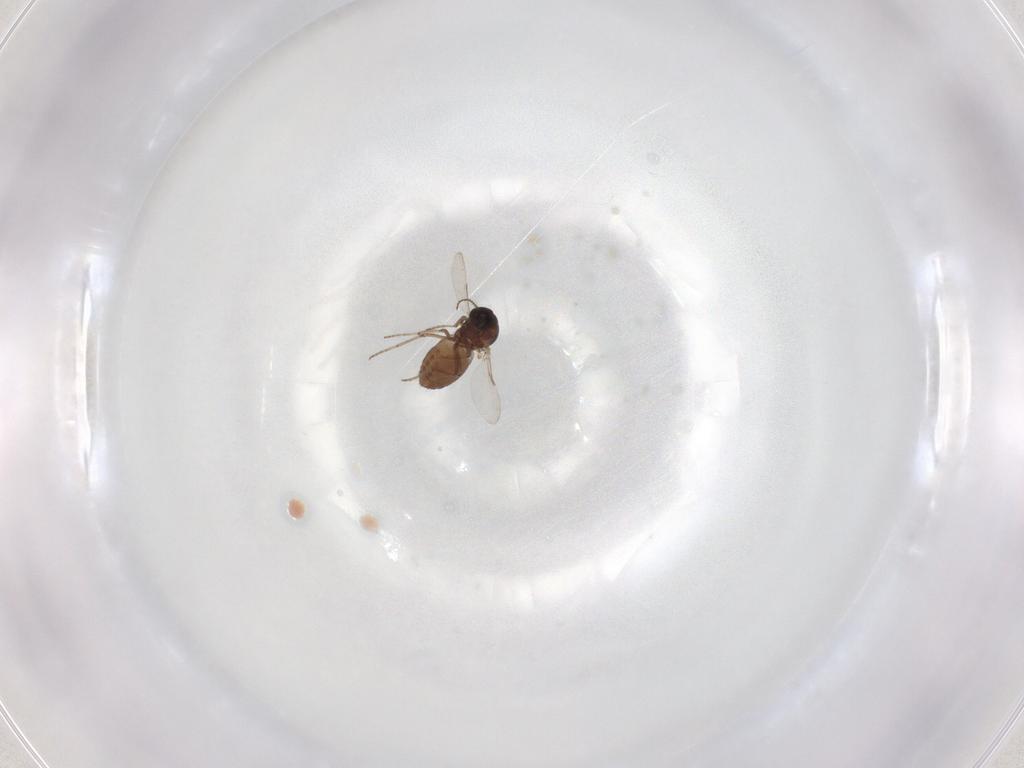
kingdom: Animalia
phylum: Arthropoda
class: Insecta
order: Diptera
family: Ceratopogonidae
